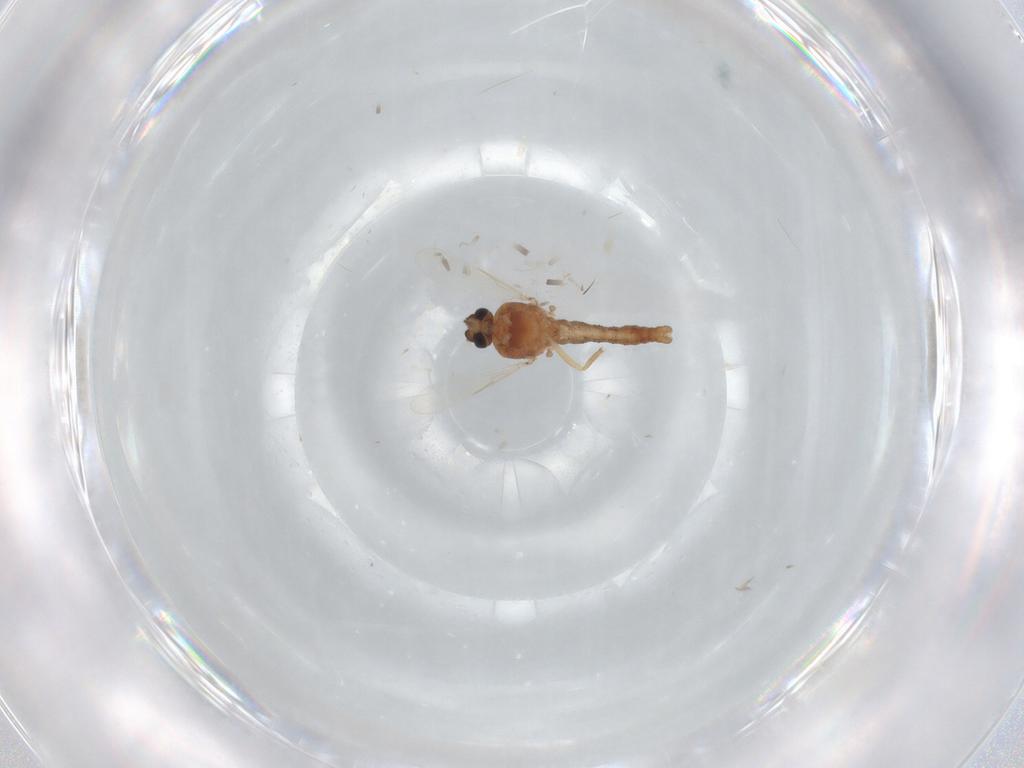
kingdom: Animalia
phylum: Arthropoda
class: Insecta
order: Diptera
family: Ceratopogonidae
